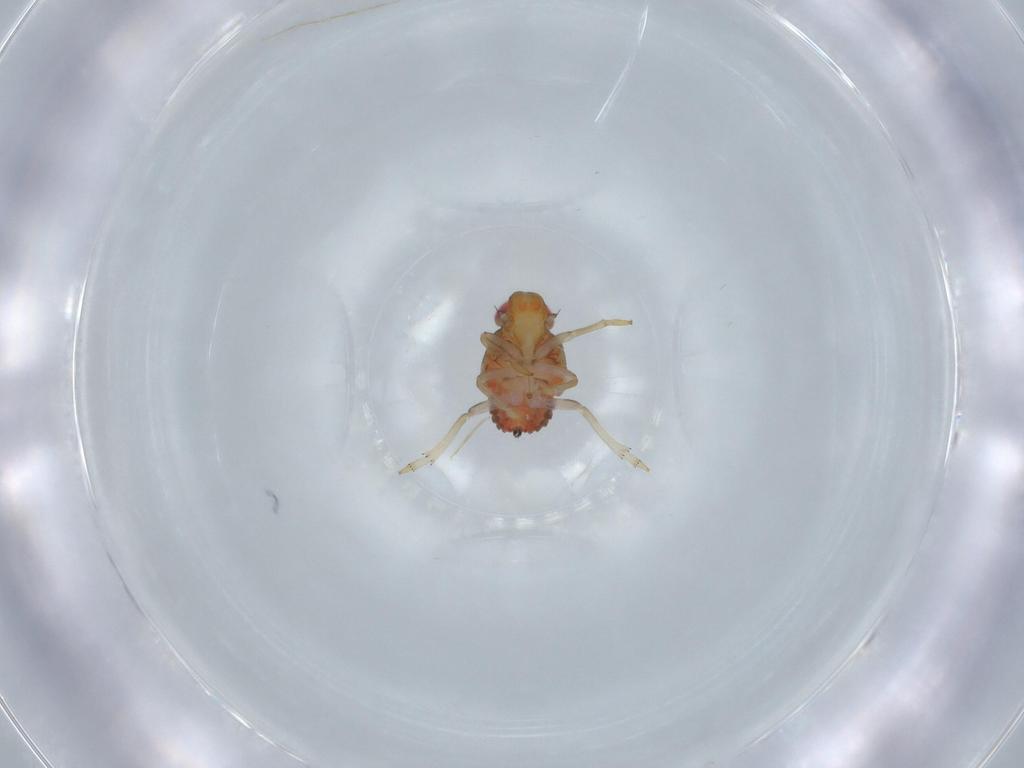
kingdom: Animalia
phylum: Arthropoda
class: Insecta
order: Hemiptera
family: Issidae
